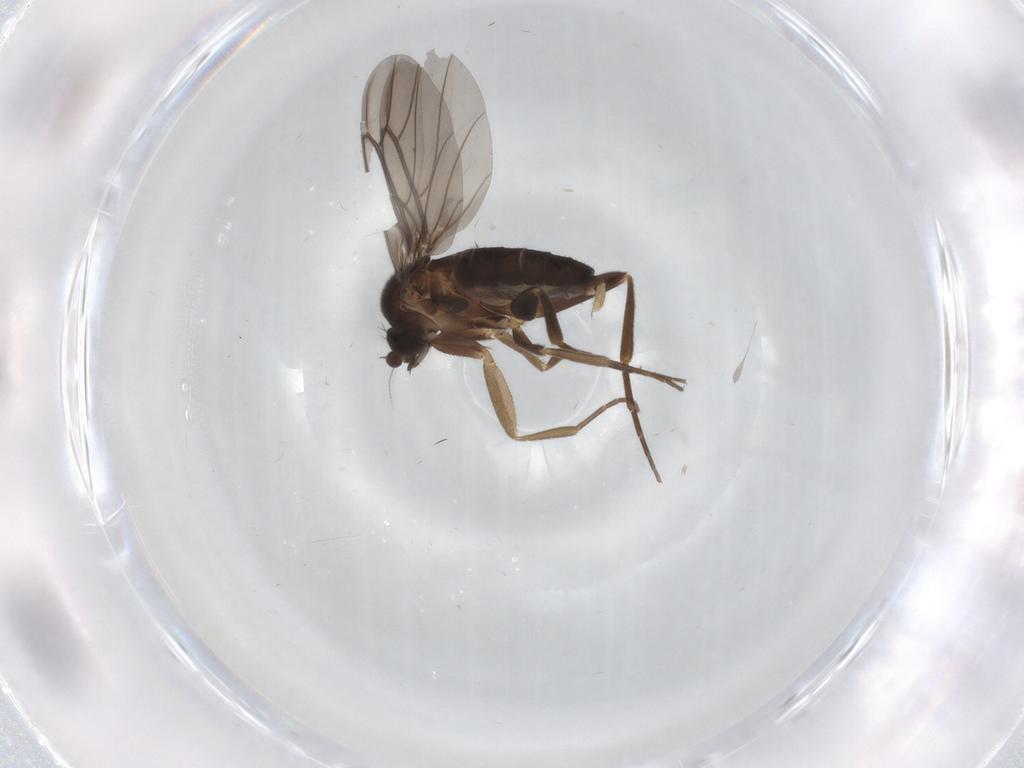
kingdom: Animalia
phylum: Arthropoda
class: Insecta
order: Diptera
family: Ceratopogonidae
